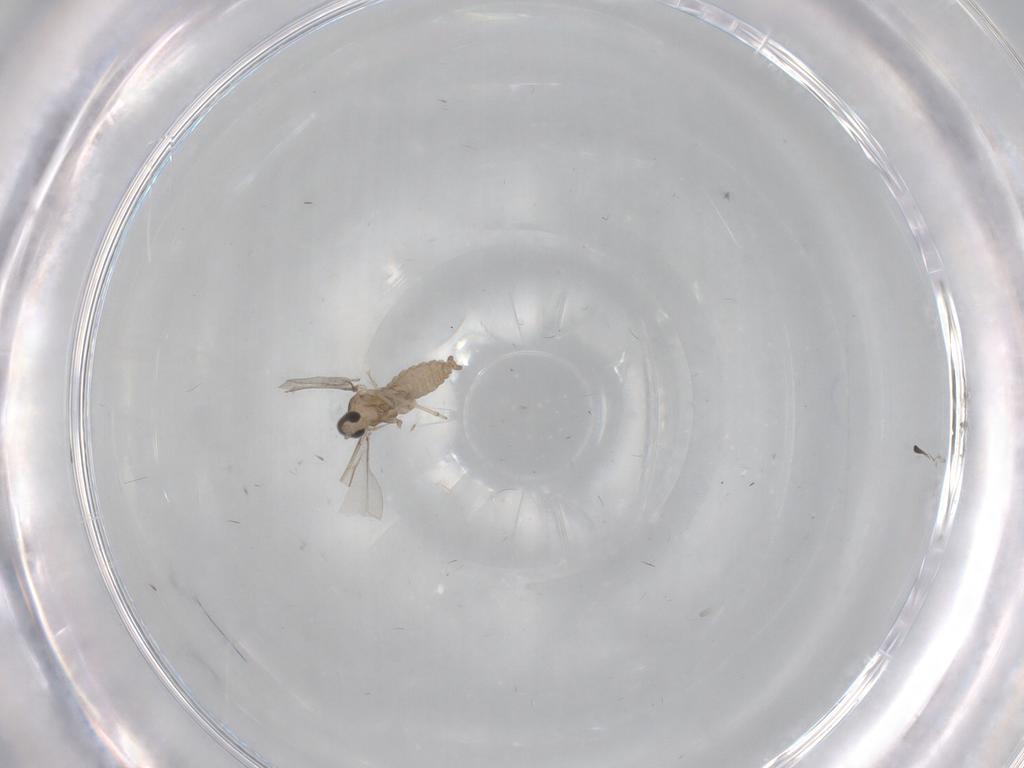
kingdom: Animalia
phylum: Arthropoda
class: Insecta
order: Diptera
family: Cecidomyiidae
